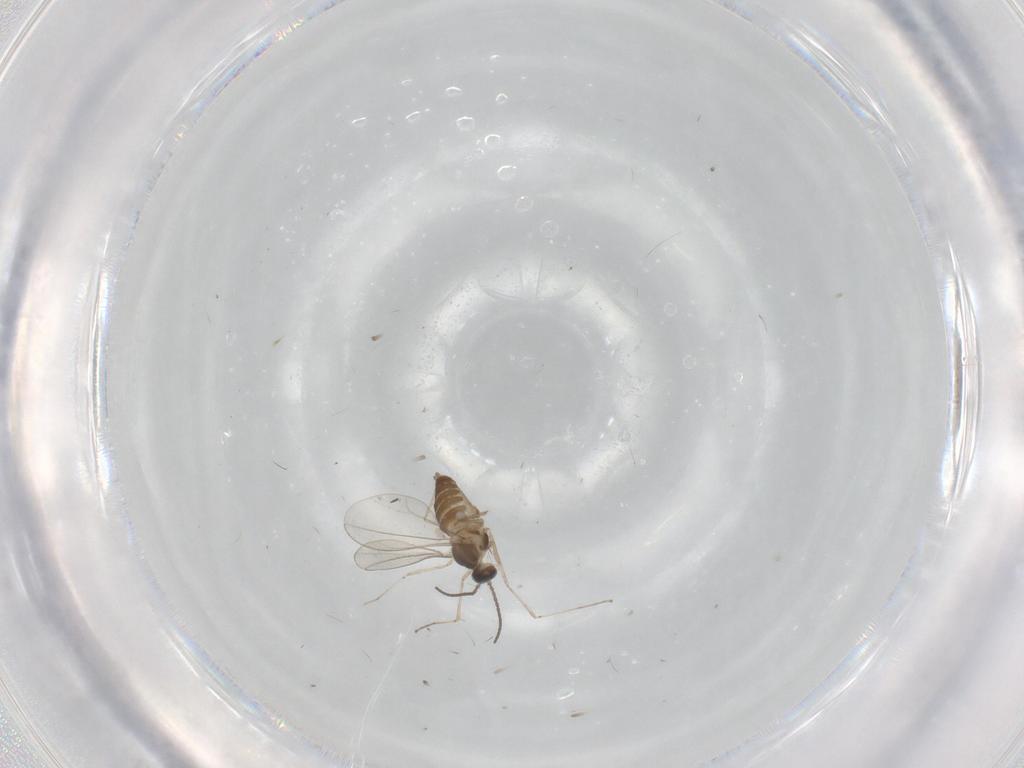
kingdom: Animalia
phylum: Arthropoda
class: Insecta
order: Diptera
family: Cecidomyiidae
